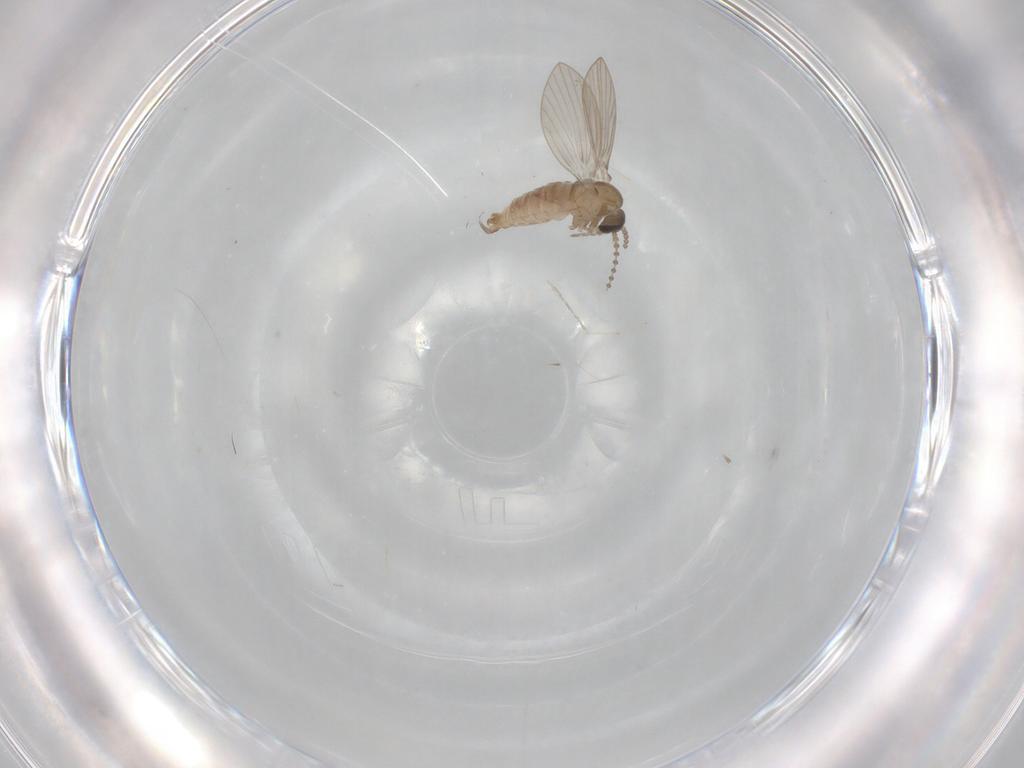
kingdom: Animalia
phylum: Arthropoda
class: Insecta
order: Diptera
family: Psychodidae
